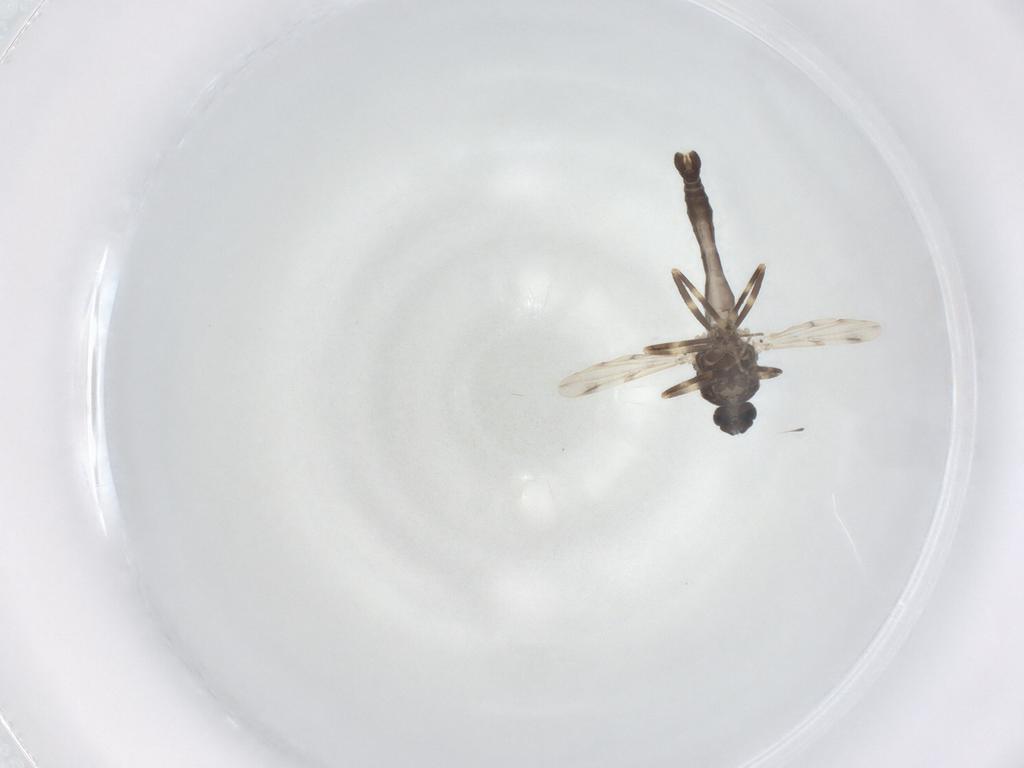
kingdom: Animalia
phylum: Arthropoda
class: Insecta
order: Diptera
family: Ceratopogonidae
